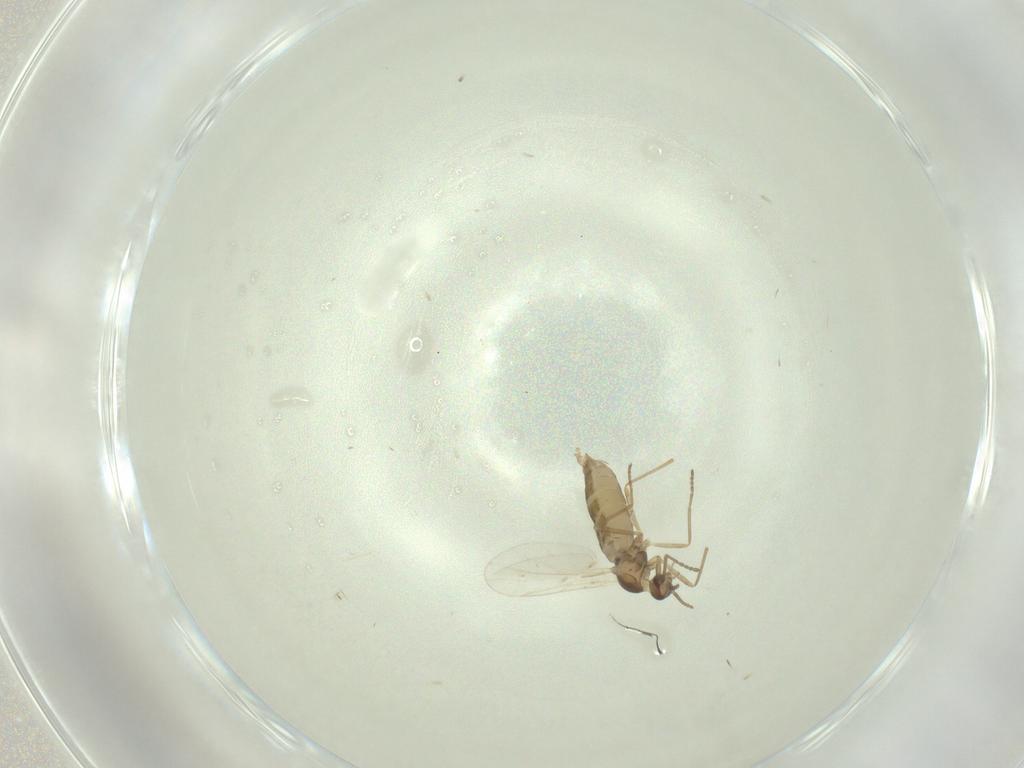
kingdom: Animalia
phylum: Arthropoda
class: Insecta
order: Diptera
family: Cecidomyiidae
